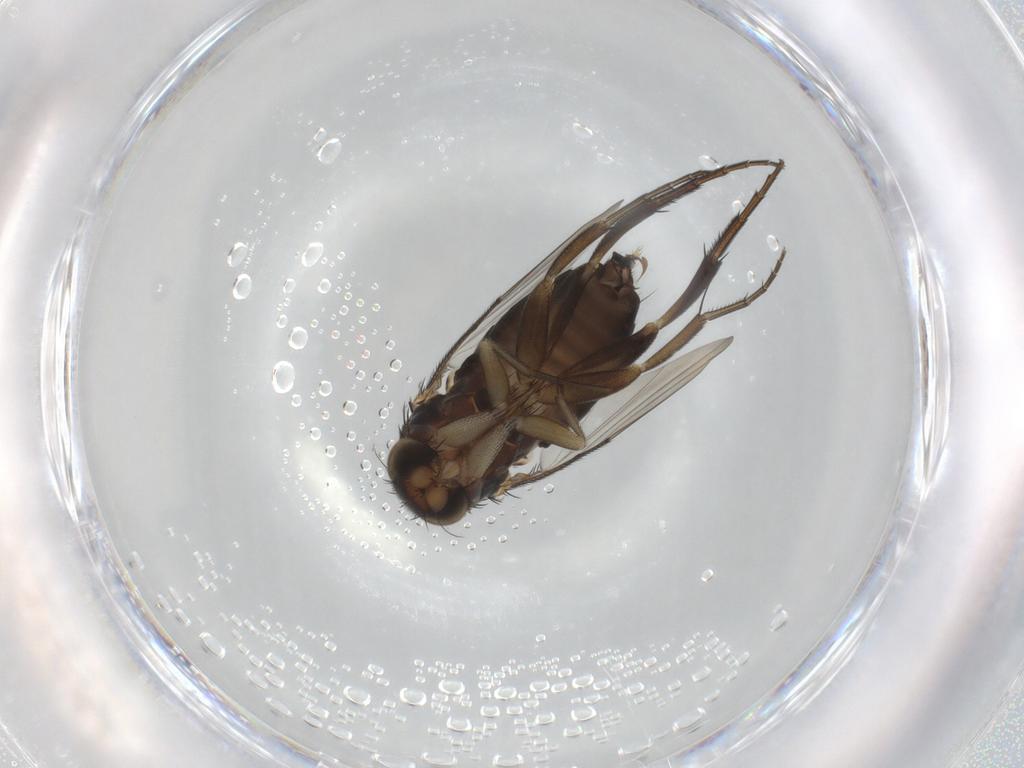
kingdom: Animalia
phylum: Arthropoda
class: Insecta
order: Diptera
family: Phoridae
